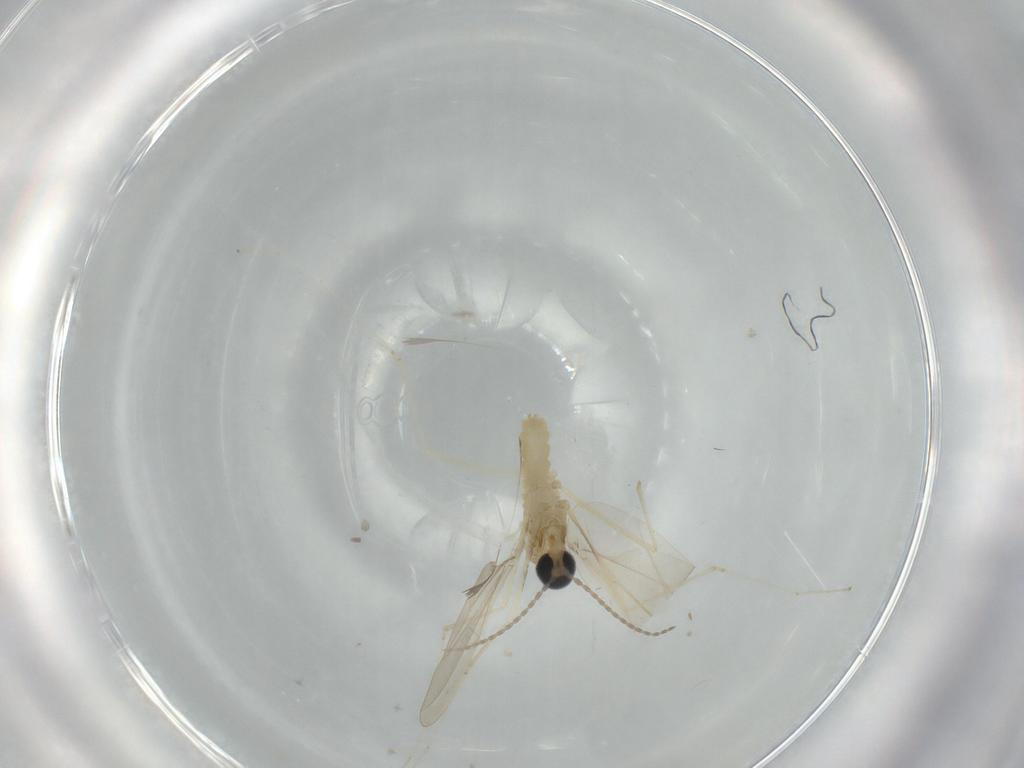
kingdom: Animalia
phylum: Arthropoda
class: Insecta
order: Diptera
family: Cecidomyiidae
